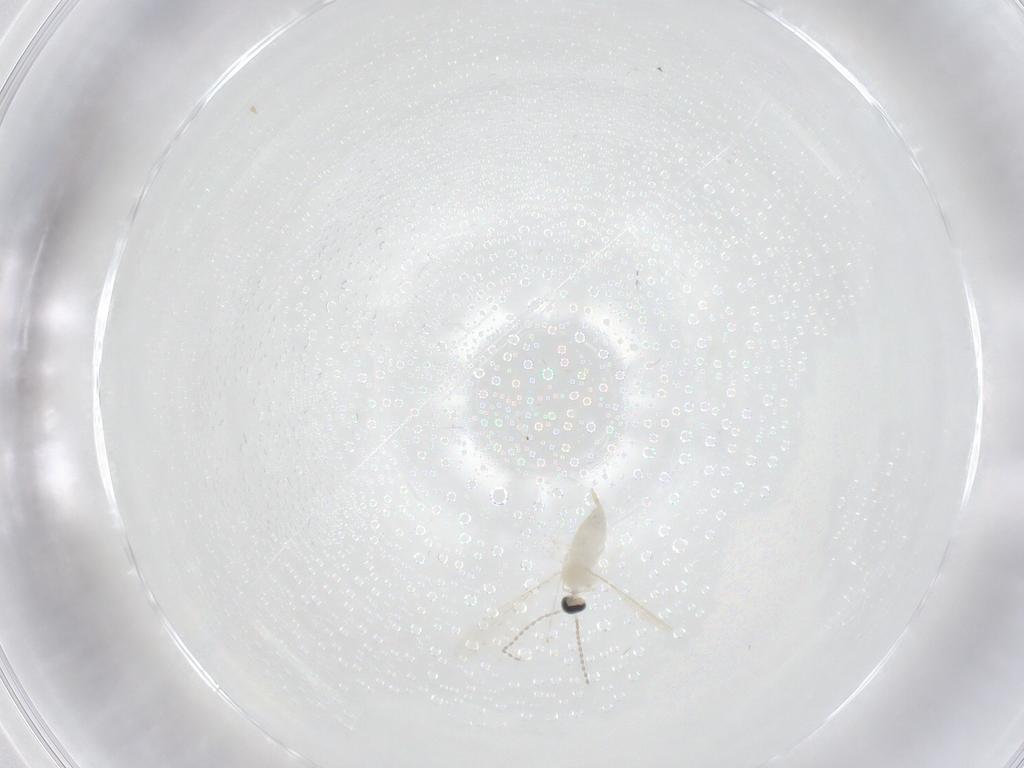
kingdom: Animalia
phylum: Arthropoda
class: Insecta
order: Diptera
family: Cecidomyiidae
